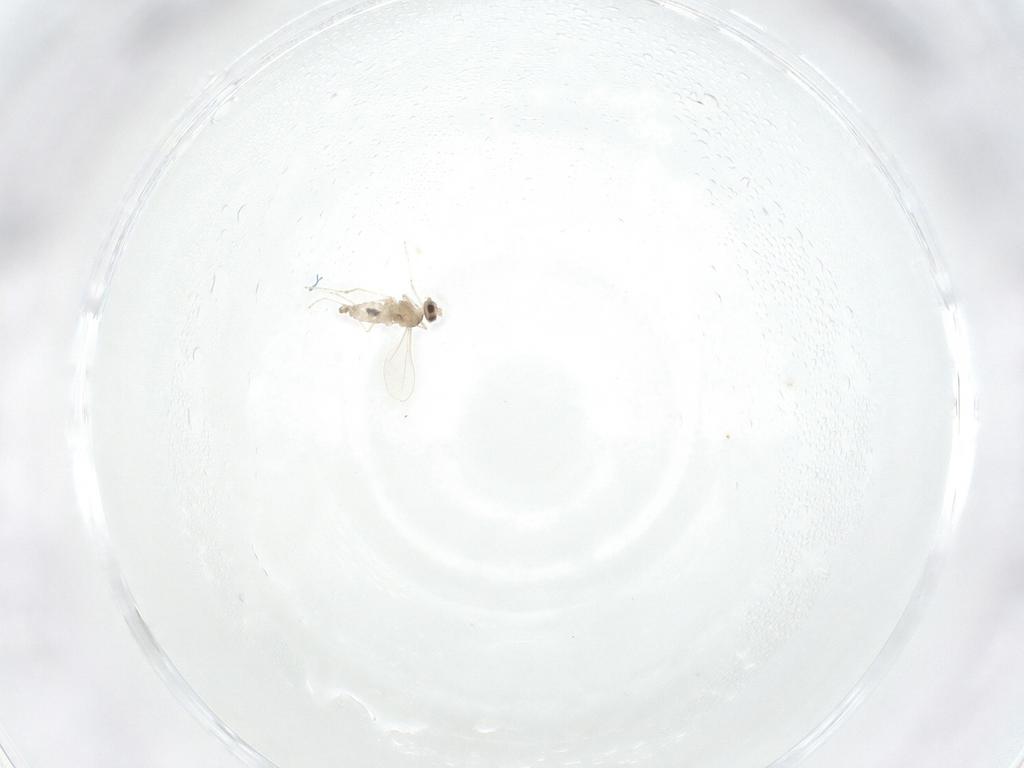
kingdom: Animalia
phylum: Arthropoda
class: Insecta
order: Diptera
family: Cecidomyiidae
